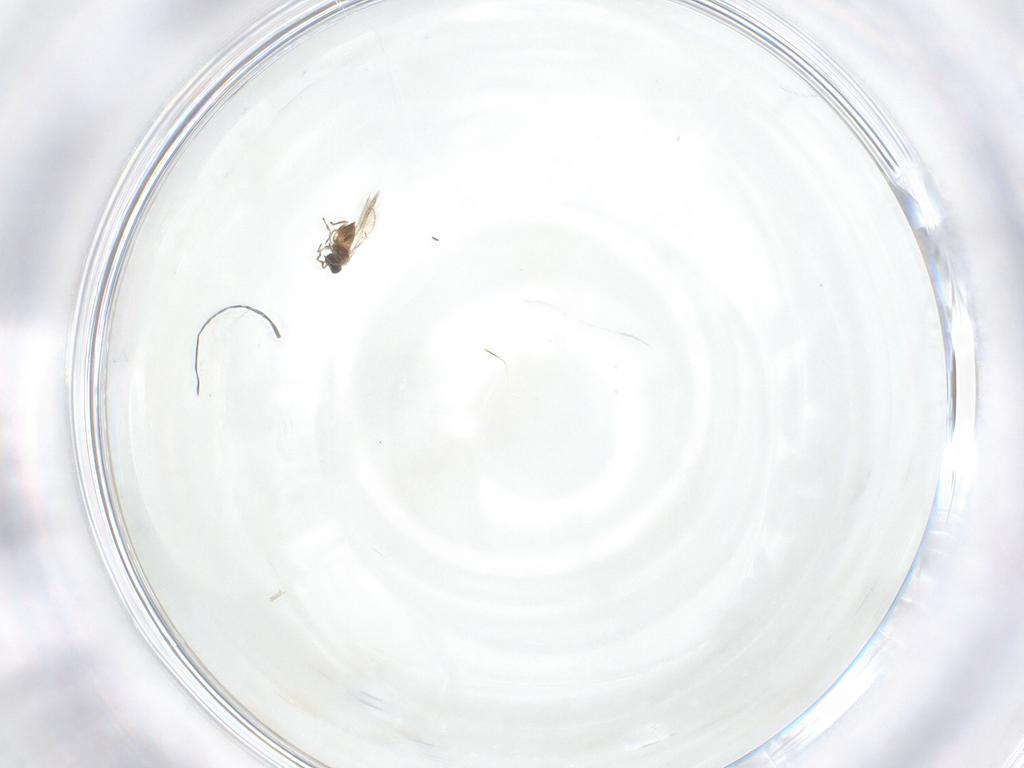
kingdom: Animalia
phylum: Arthropoda
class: Insecta
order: Hymenoptera
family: Trichogrammatidae
